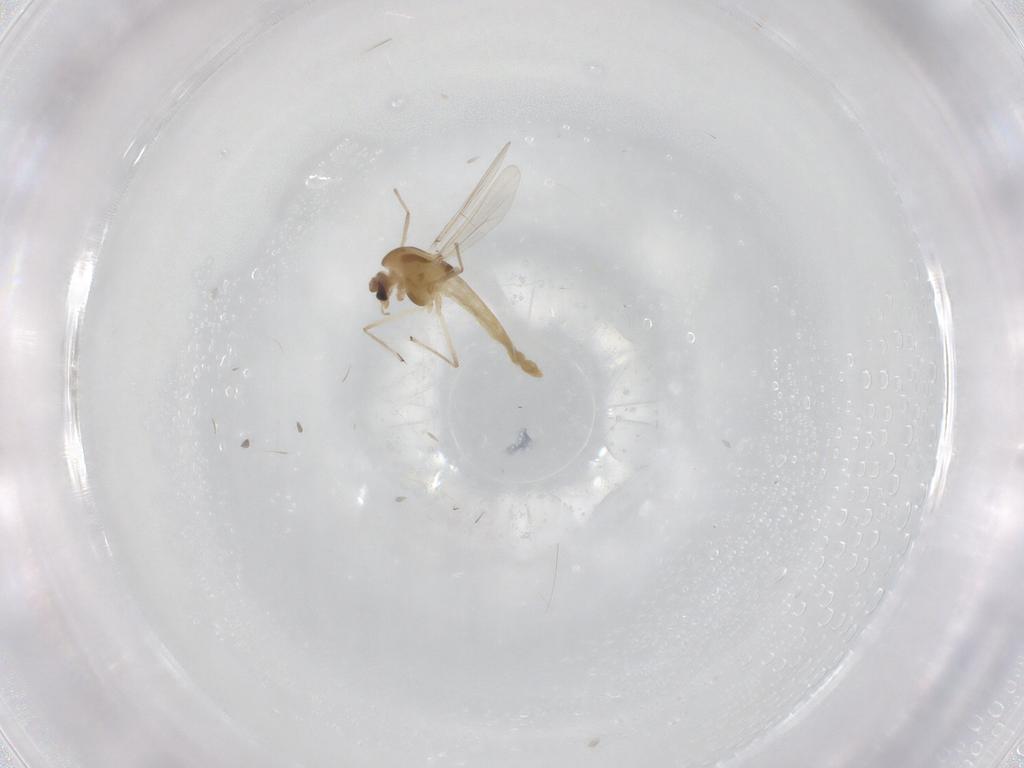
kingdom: Animalia
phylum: Arthropoda
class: Insecta
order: Diptera
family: Chironomidae
